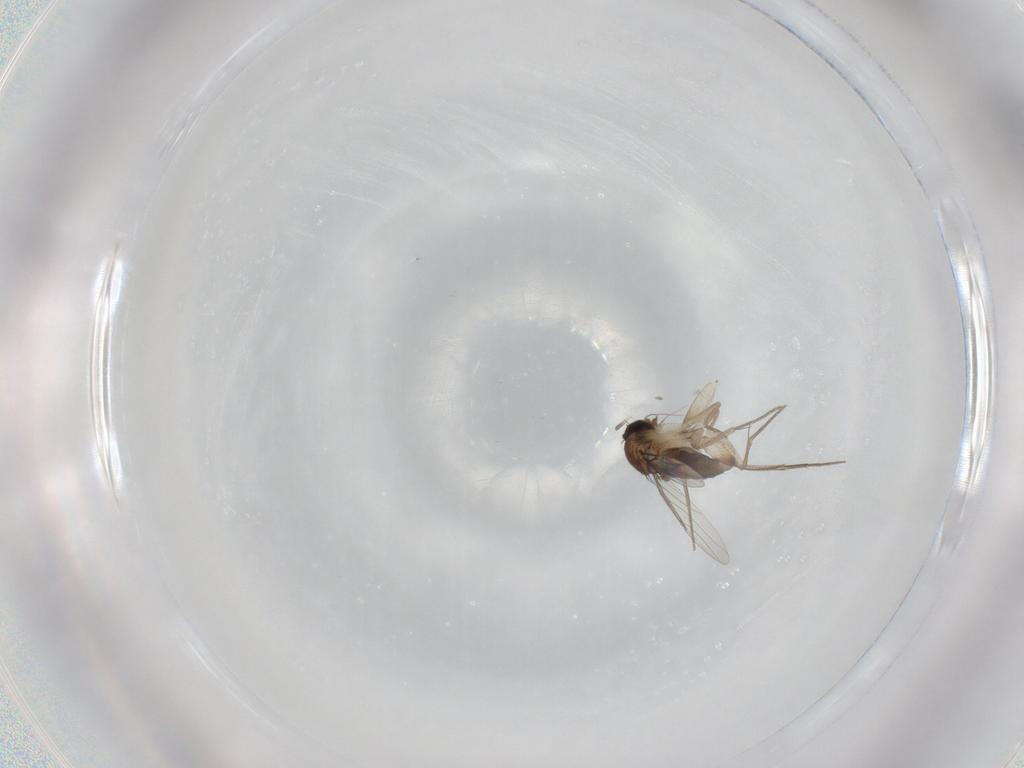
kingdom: Animalia
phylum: Arthropoda
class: Insecta
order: Diptera
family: Phoridae
